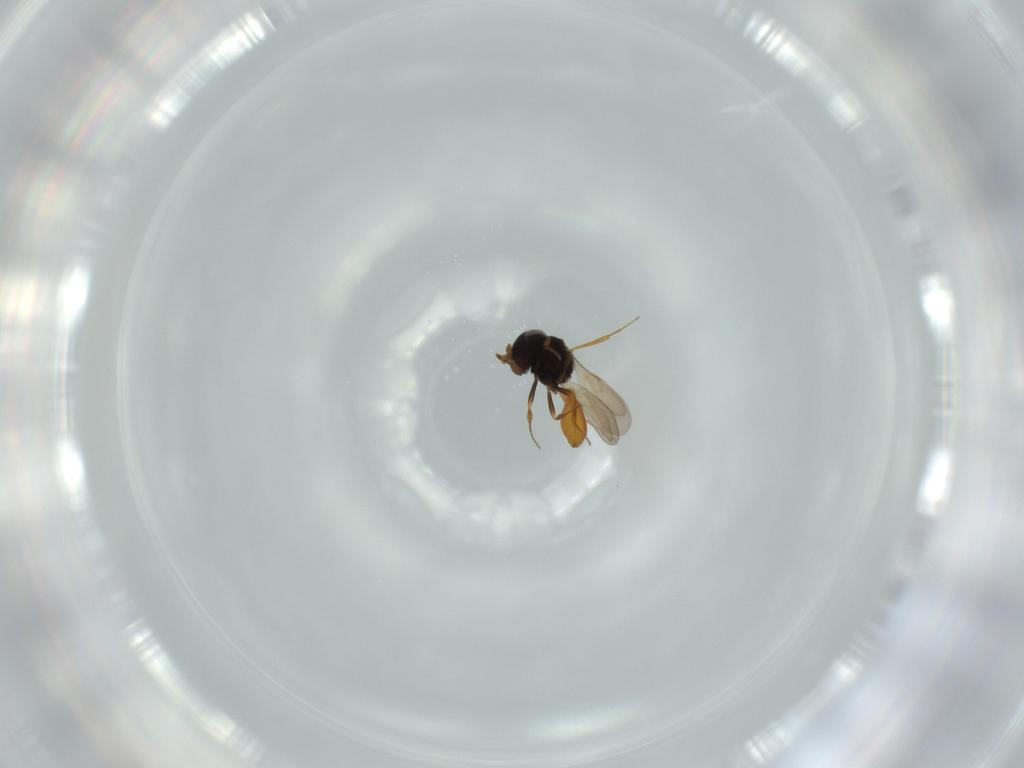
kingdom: Animalia
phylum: Arthropoda
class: Insecta
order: Hymenoptera
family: Scelionidae
